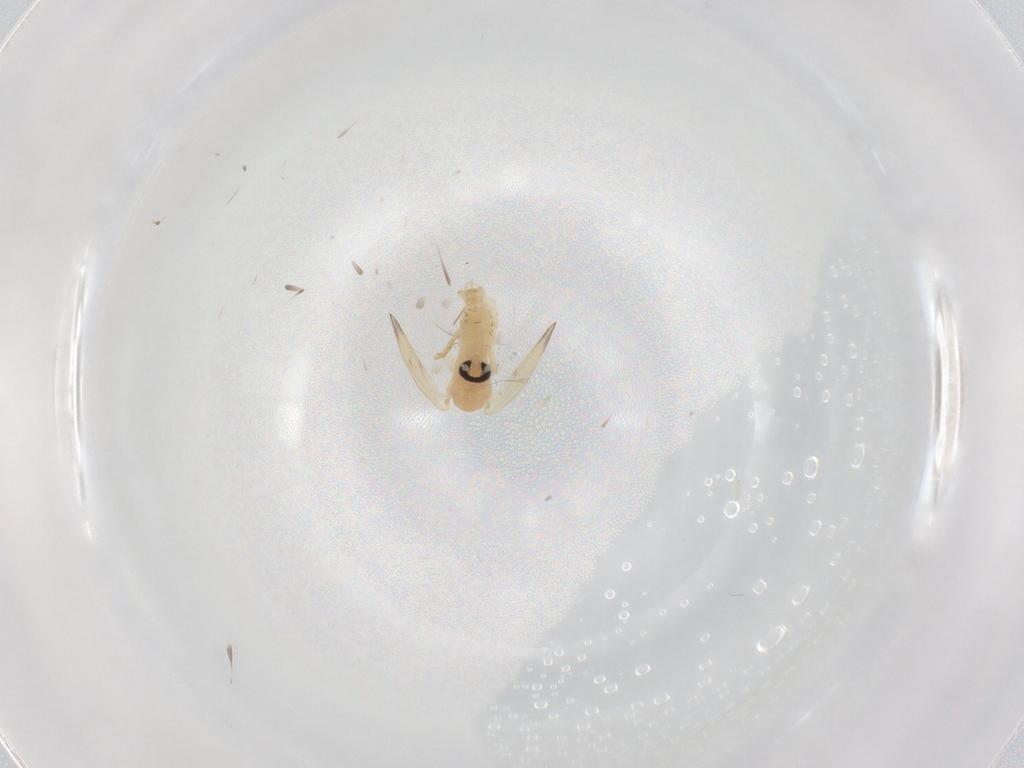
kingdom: Animalia
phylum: Arthropoda
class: Insecta
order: Diptera
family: Psychodidae
